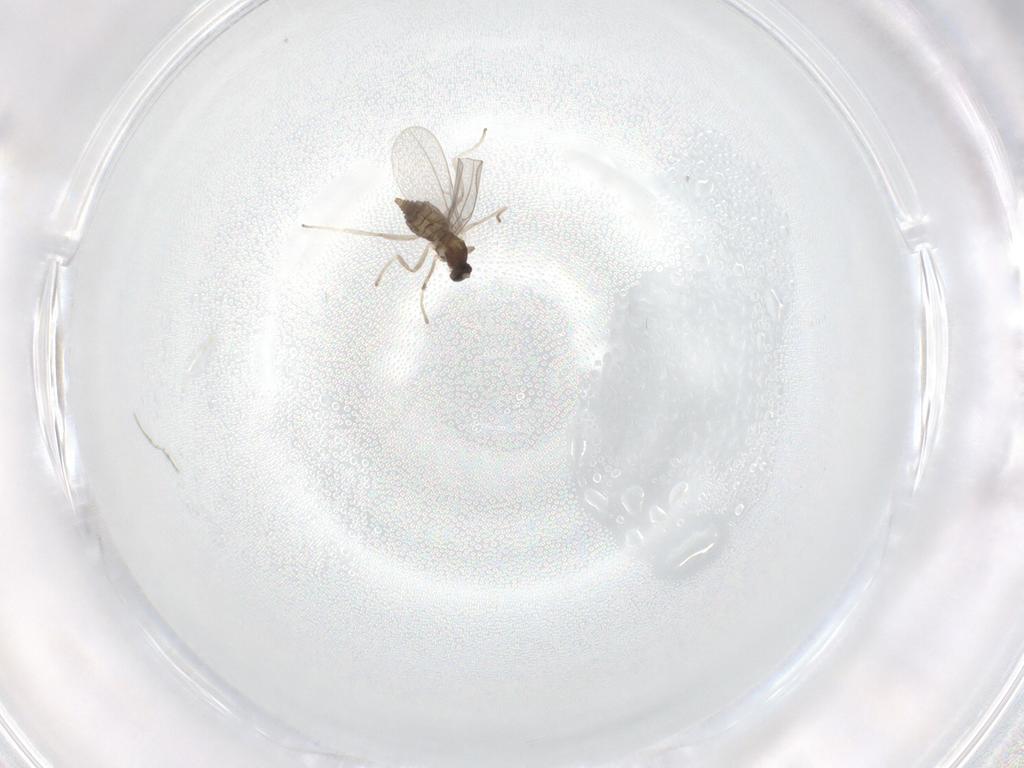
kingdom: Animalia
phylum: Arthropoda
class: Insecta
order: Diptera
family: Cecidomyiidae
